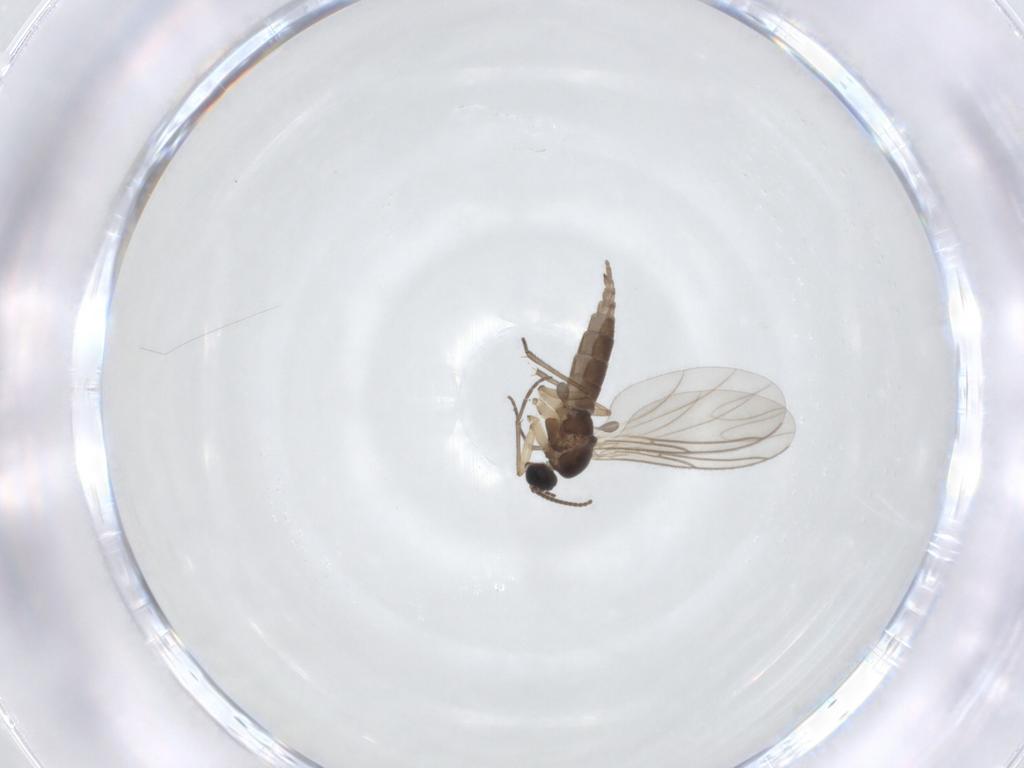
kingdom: Animalia
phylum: Arthropoda
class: Insecta
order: Diptera
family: Sciaridae
